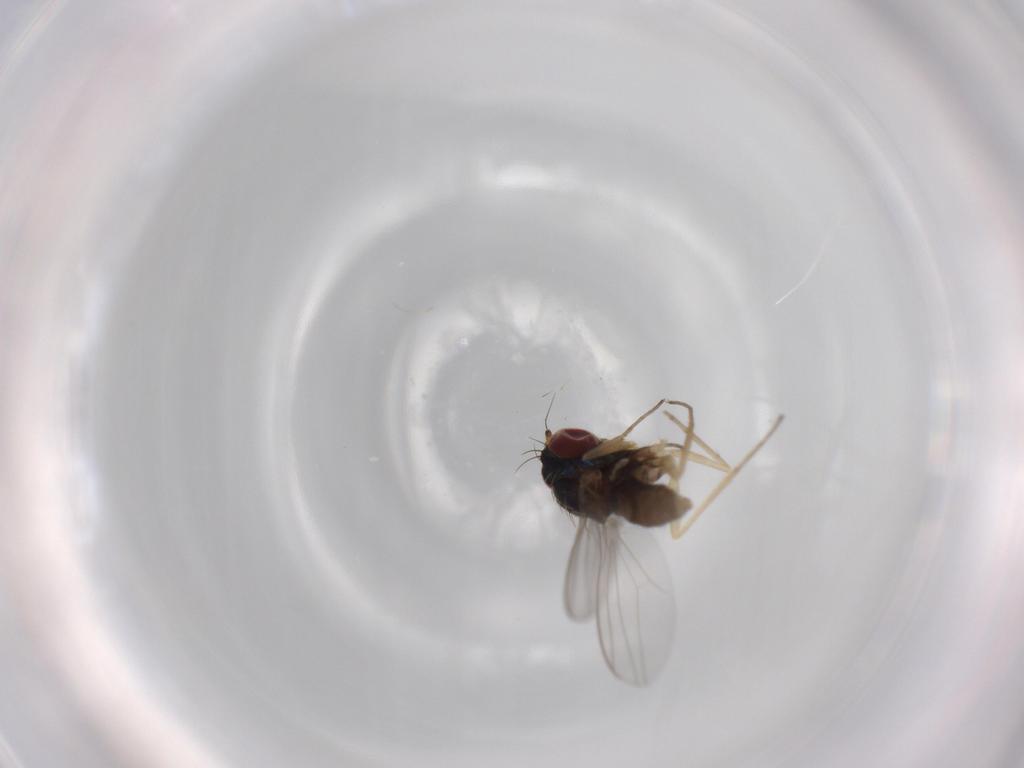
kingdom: Animalia
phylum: Arthropoda
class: Insecta
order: Diptera
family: Dolichopodidae
